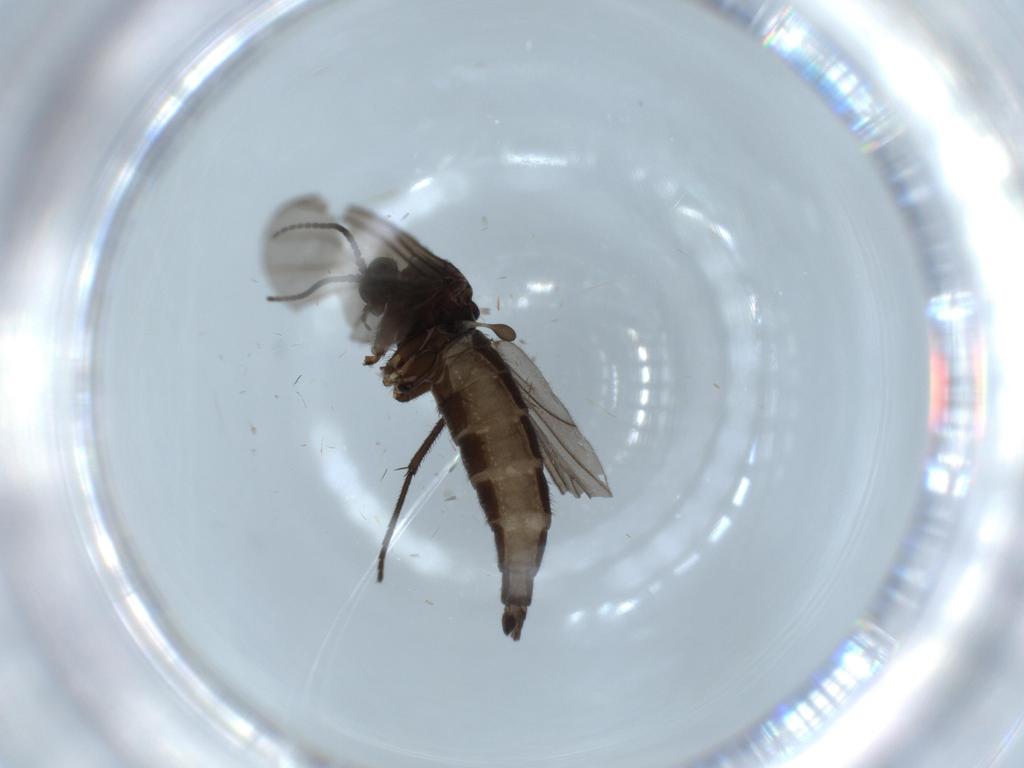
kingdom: Animalia
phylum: Arthropoda
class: Insecta
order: Diptera
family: Sciaridae
